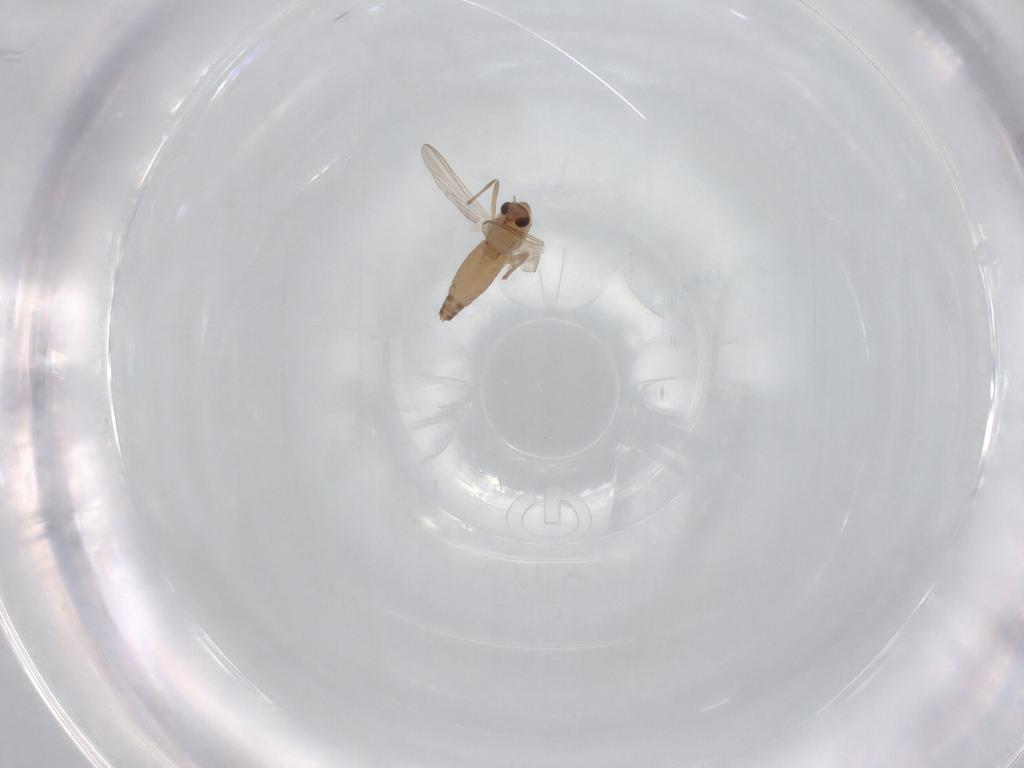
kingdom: Animalia
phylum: Arthropoda
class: Insecta
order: Diptera
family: Chironomidae
